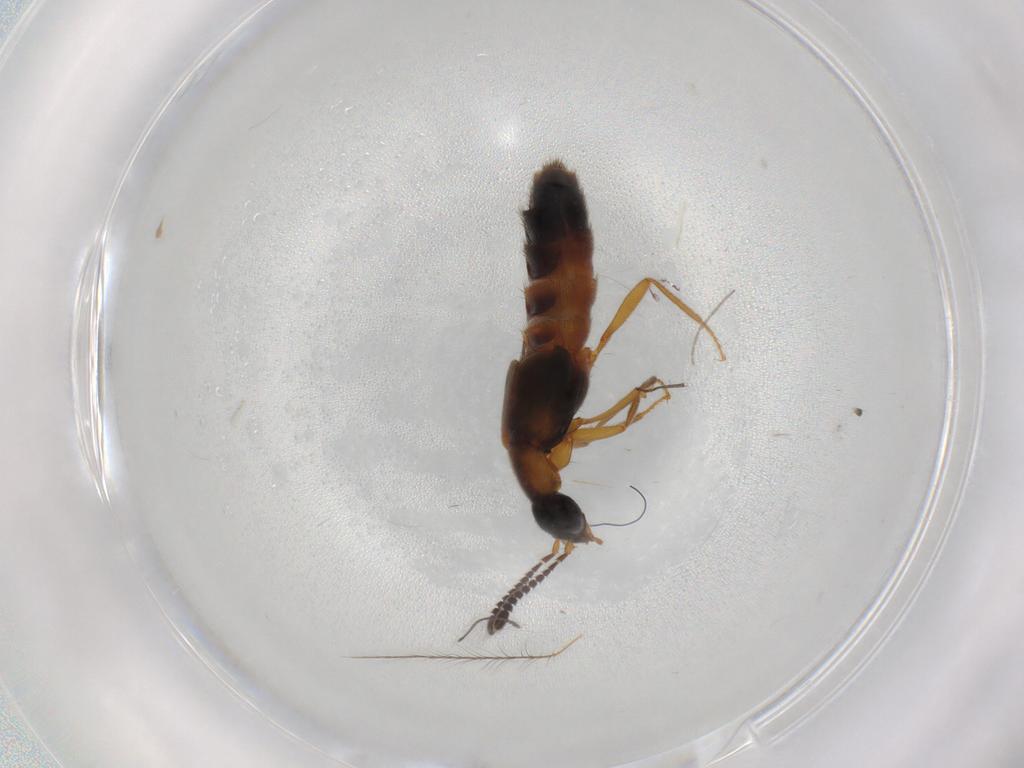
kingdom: Animalia
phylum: Arthropoda
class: Insecta
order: Coleoptera
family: Staphylinidae
